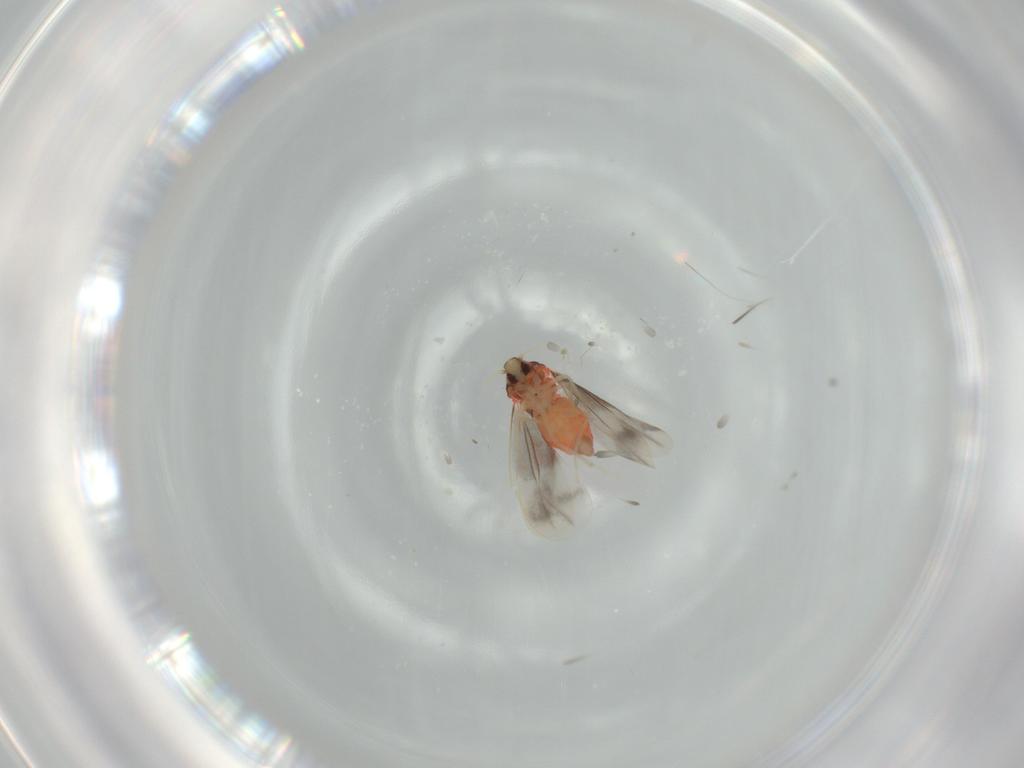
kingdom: Animalia
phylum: Arthropoda
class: Insecta
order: Hemiptera
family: Aleyrodidae
